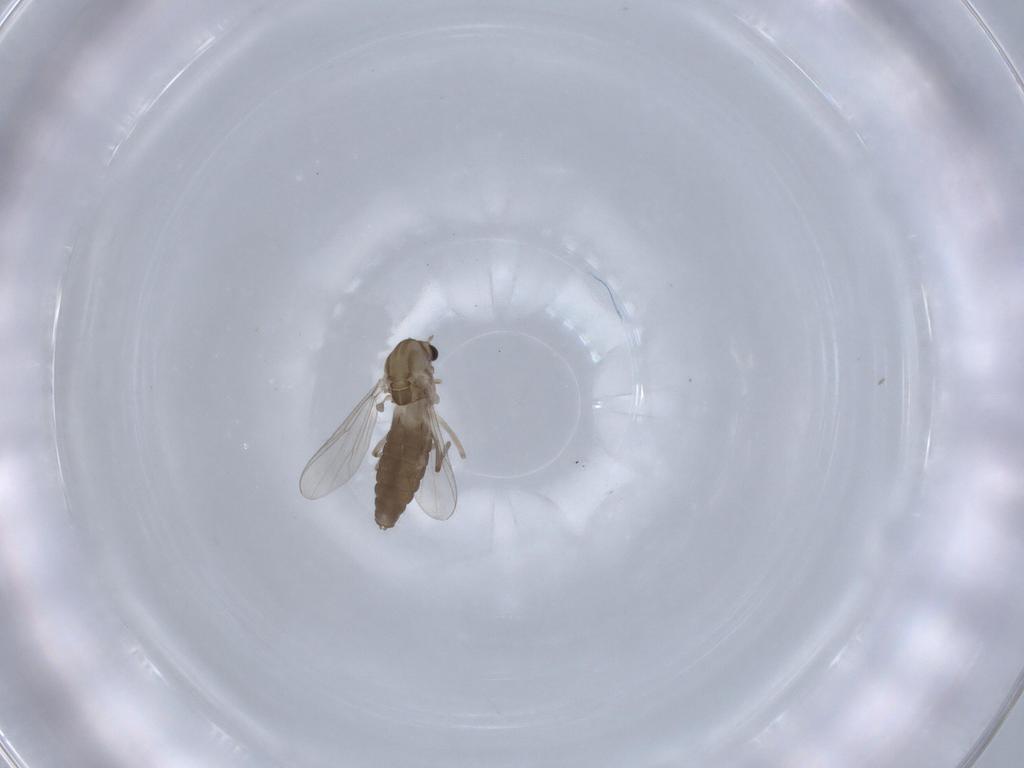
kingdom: Animalia
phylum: Arthropoda
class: Insecta
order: Diptera
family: Chironomidae
